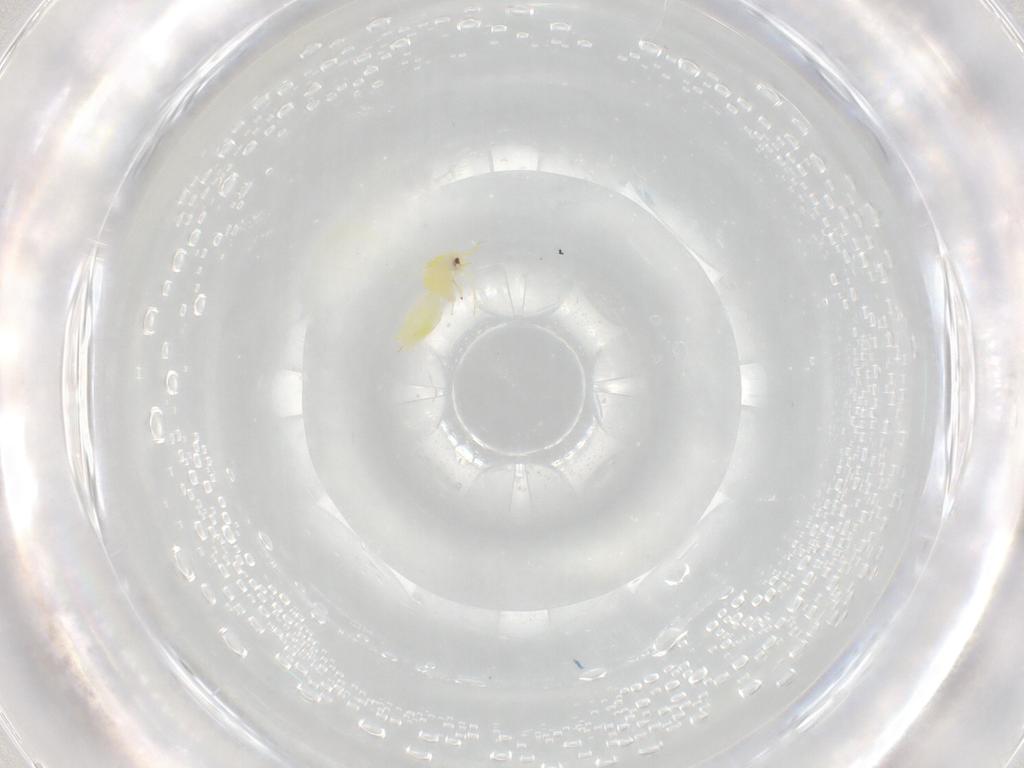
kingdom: Animalia
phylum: Arthropoda
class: Insecta
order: Hemiptera
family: Aleyrodidae
